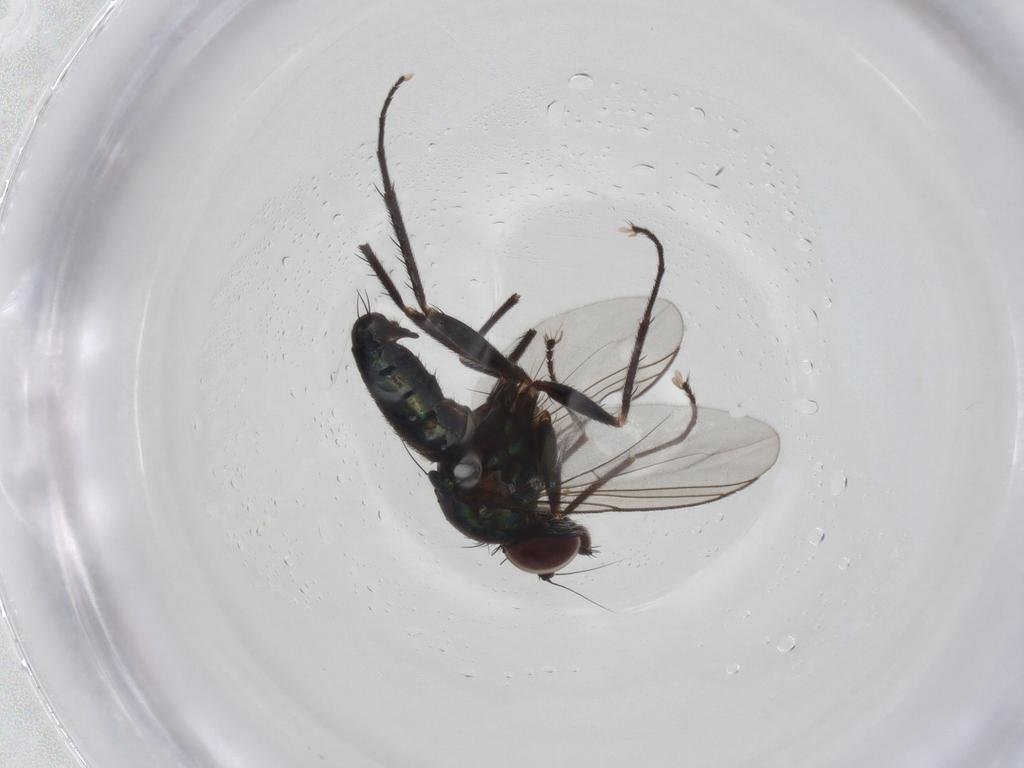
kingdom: Animalia
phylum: Arthropoda
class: Insecta
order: Diptera
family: Dolichopodidae
